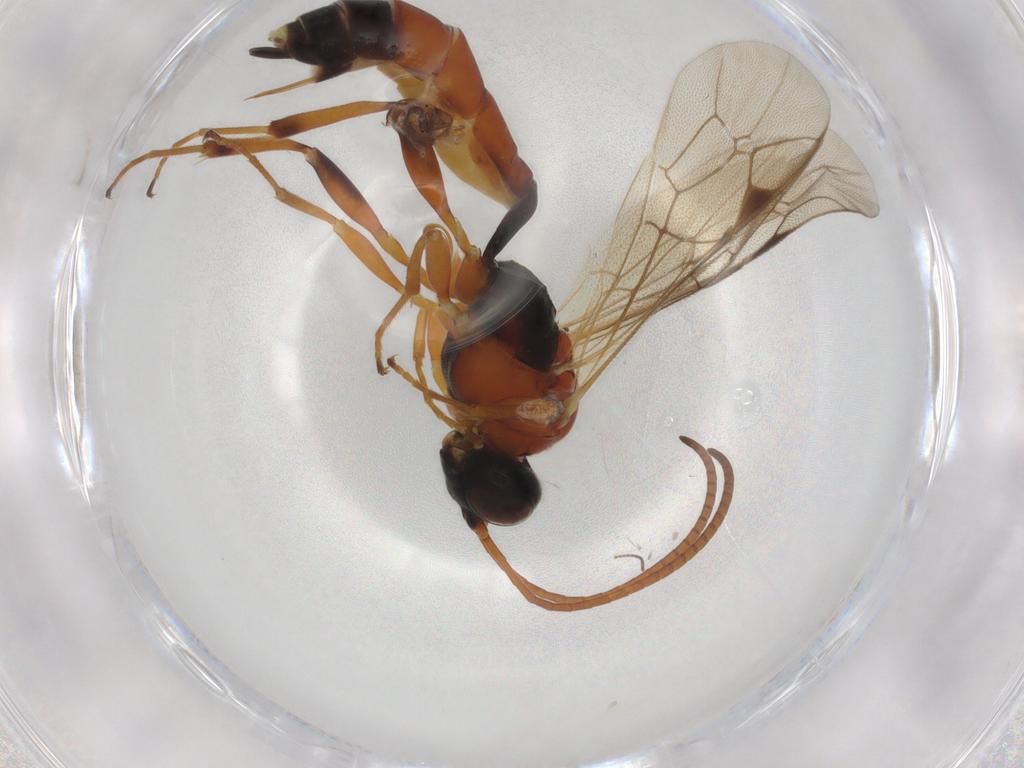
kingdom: Animalia
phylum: Arthropoda
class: Insecta
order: Hymenoptera
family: Ichneumonidae
